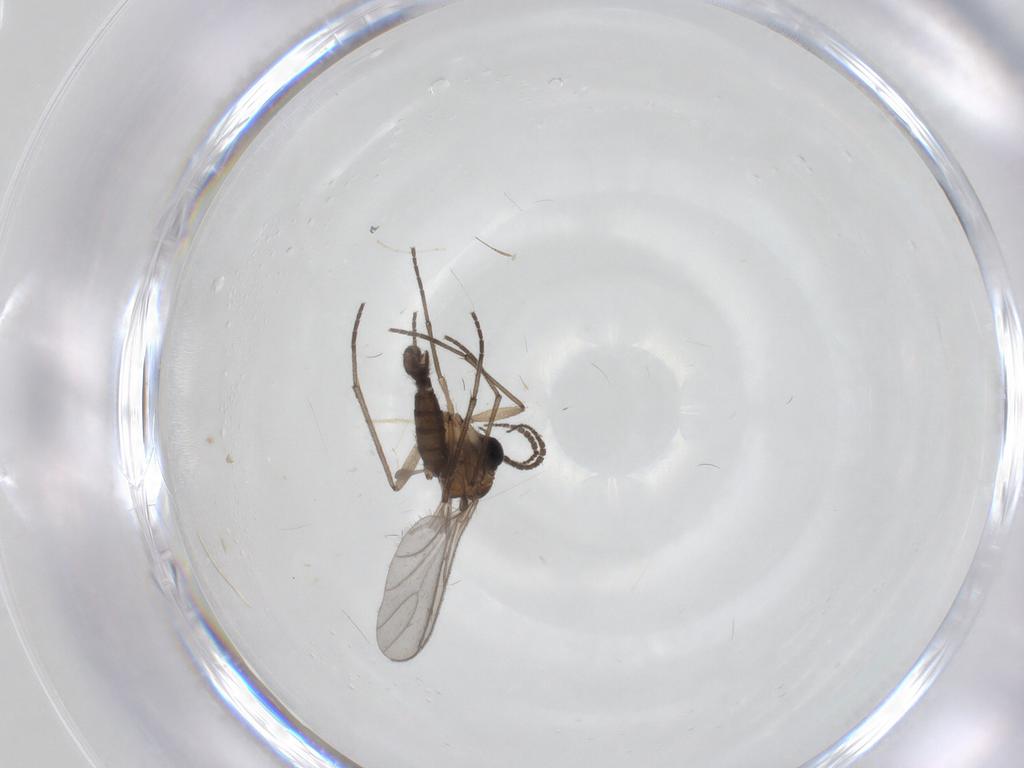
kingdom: Animalia
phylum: Arthropoda
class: Insecta
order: Diptera
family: Sciaridae
